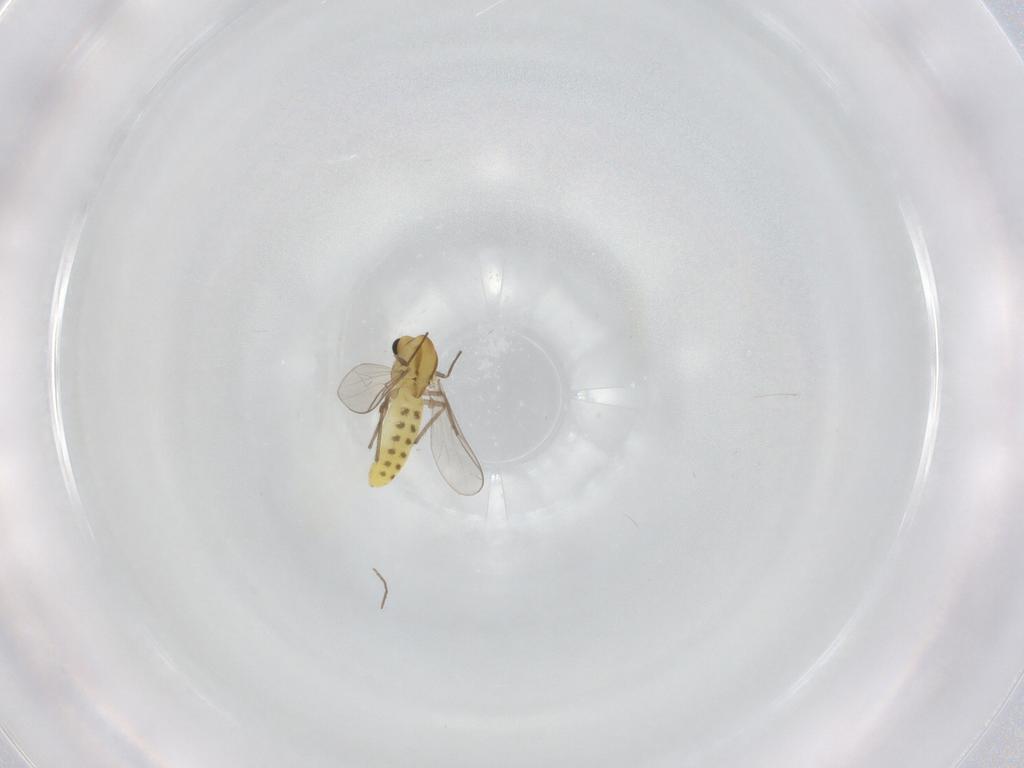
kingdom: Animalia
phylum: Arthropoda
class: Insecta
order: Diptera
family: Chironomidae
